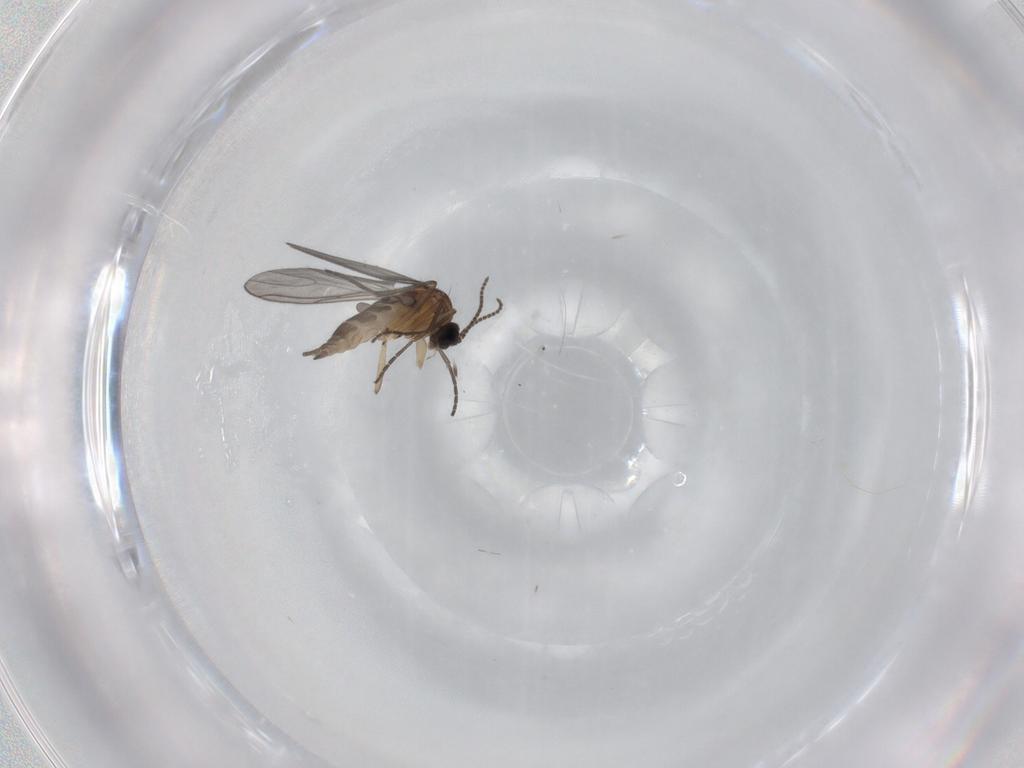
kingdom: Animalia
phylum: Arthropoda
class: Insecta
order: Diptera
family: Sciaridae
